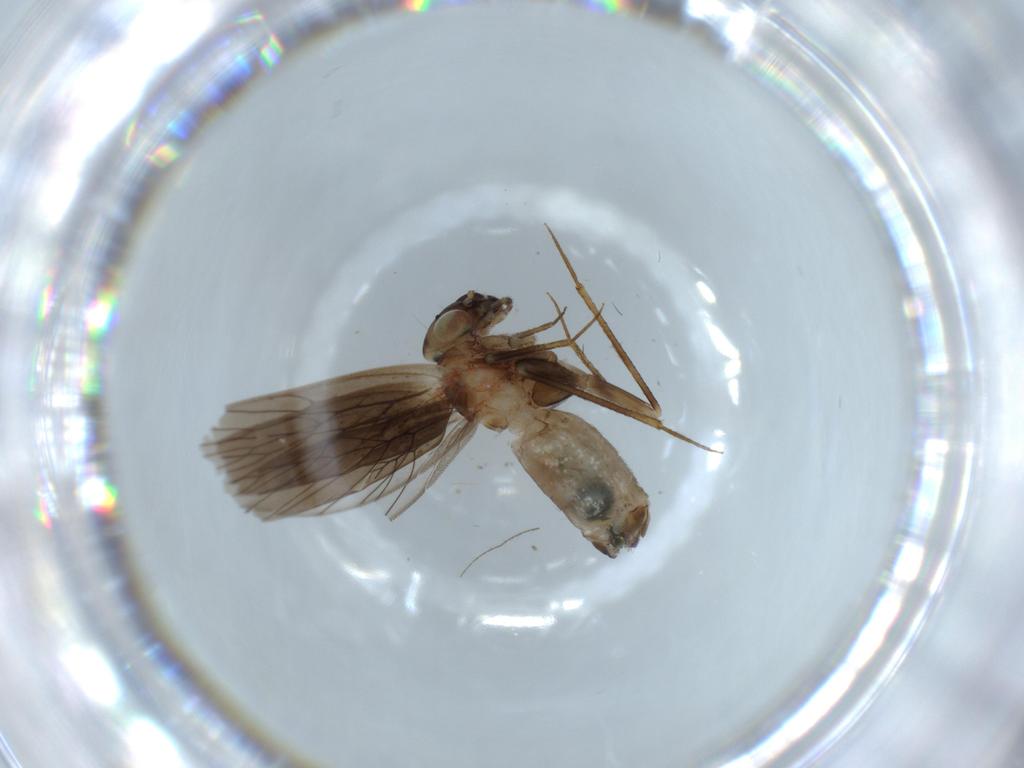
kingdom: Animalia
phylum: Arthropoda
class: Insecta
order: Psocodea
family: Lepidopsocidae
